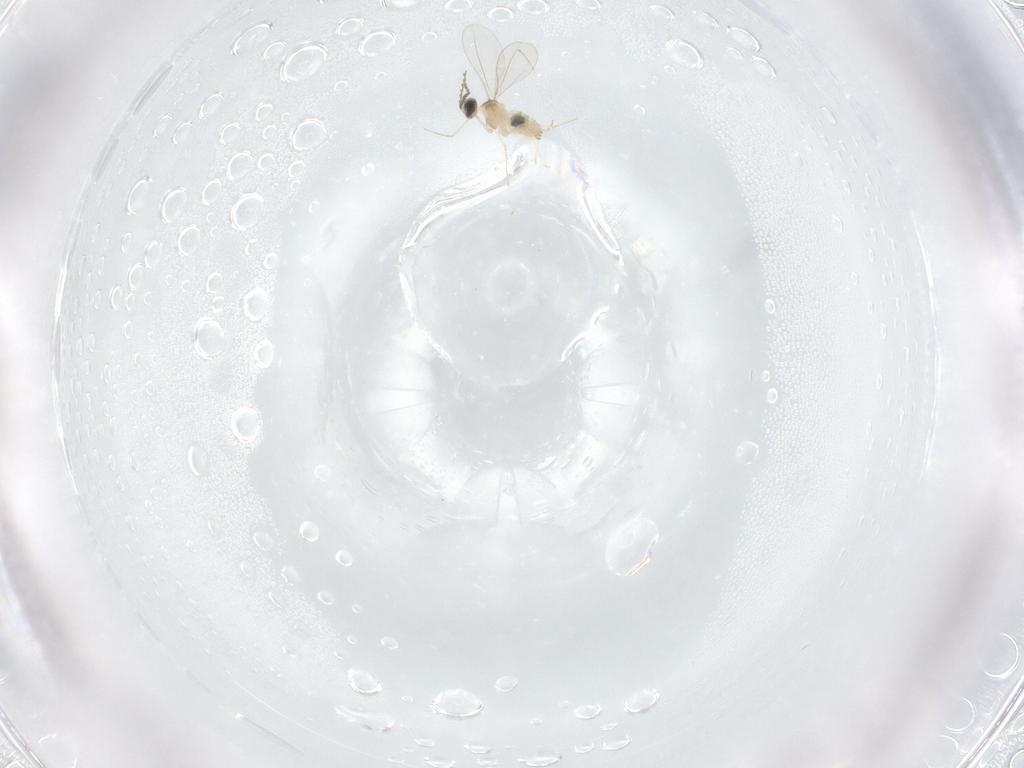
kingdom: Animalia
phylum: Arthropoda
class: Insecta
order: Diptera
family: Cecidomyiidae
